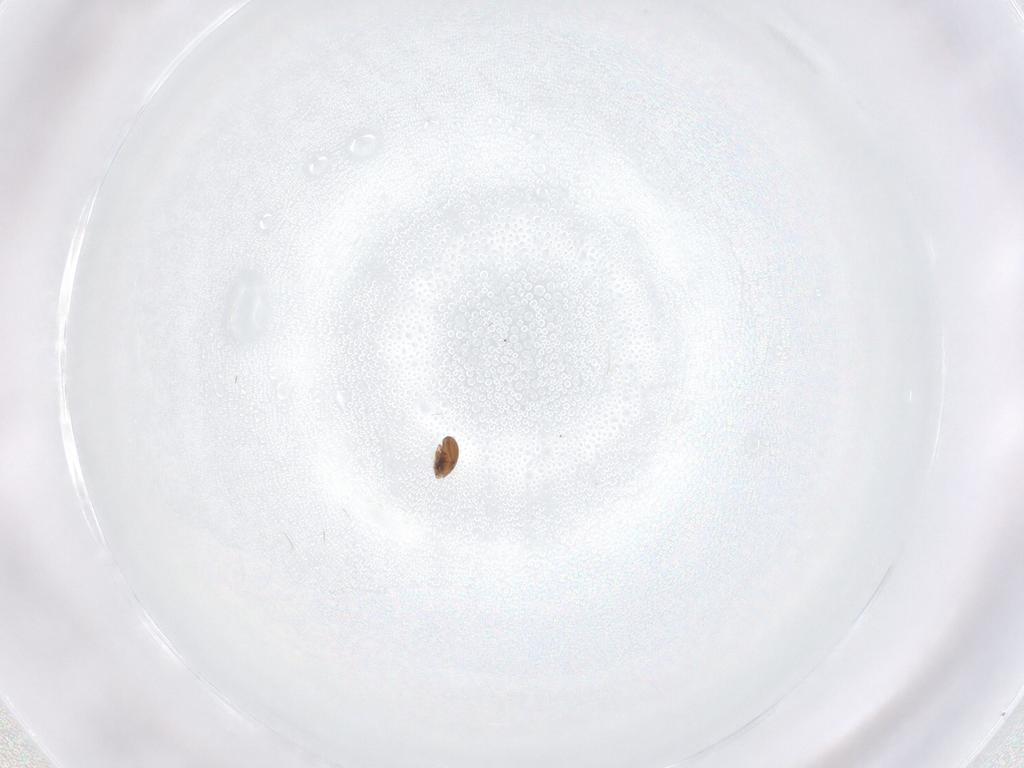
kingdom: Animalia
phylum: Arthropoda
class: Arachnida
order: Sarcoptiformes
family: Oribatulidae
